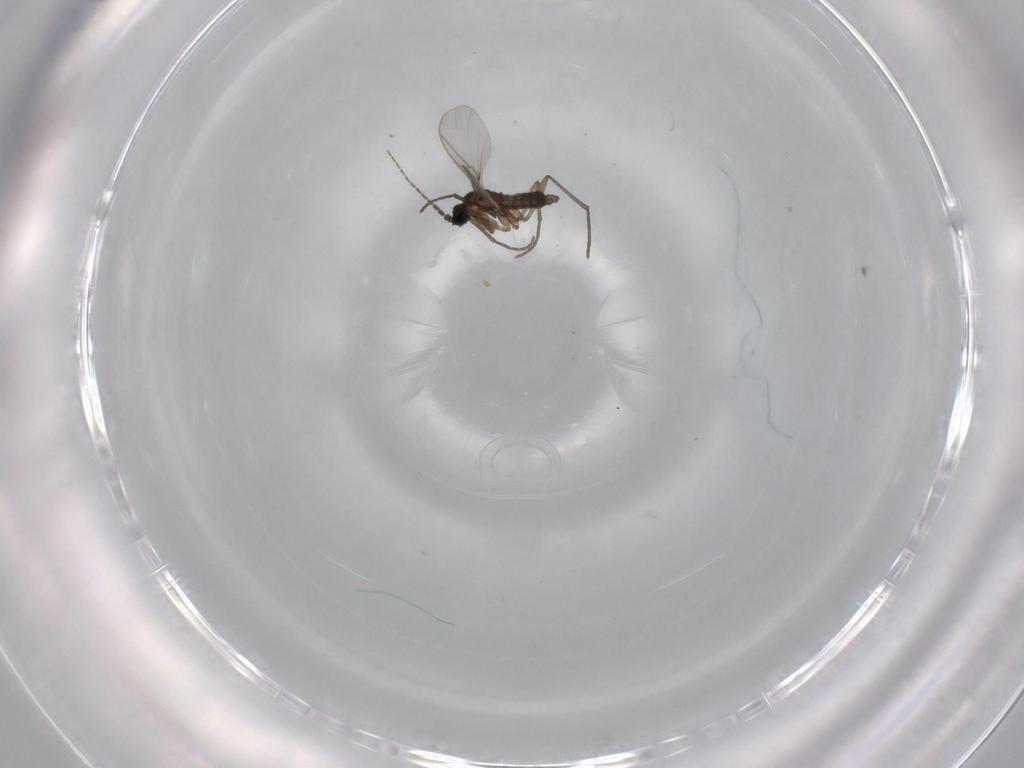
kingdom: Animalia
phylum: Arthropoda
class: Insecta
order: Diptera
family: Sciaridae
